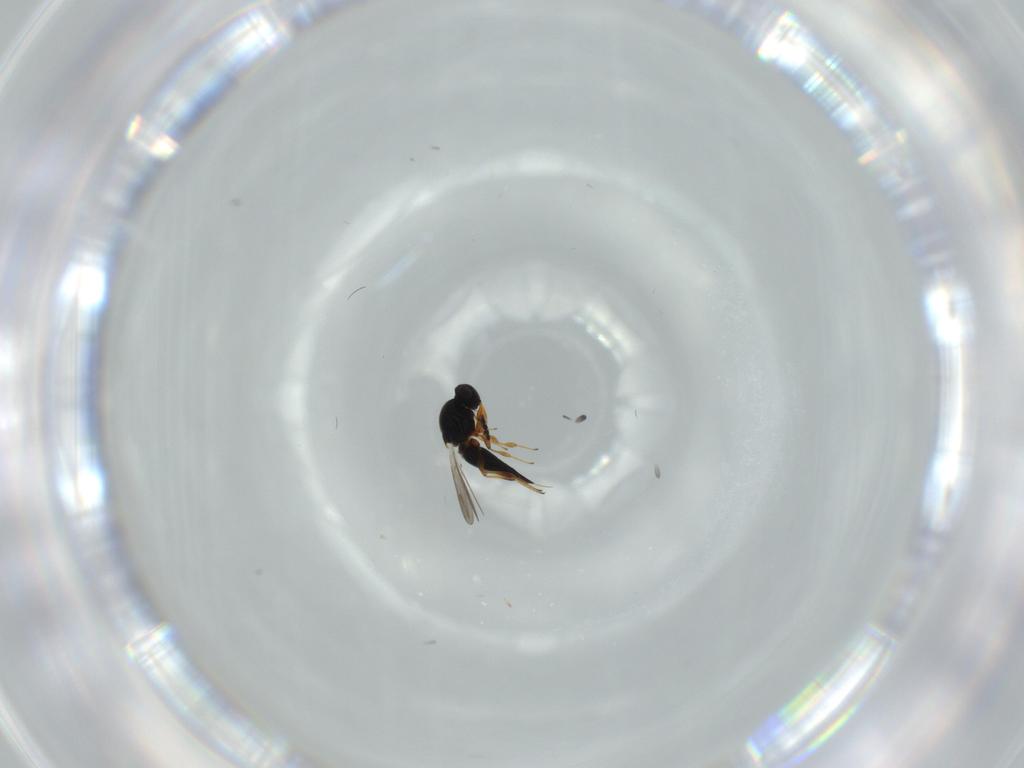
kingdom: Animalia
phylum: Arthropoda
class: Insecta
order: Hymenoptera
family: Platygastridae
